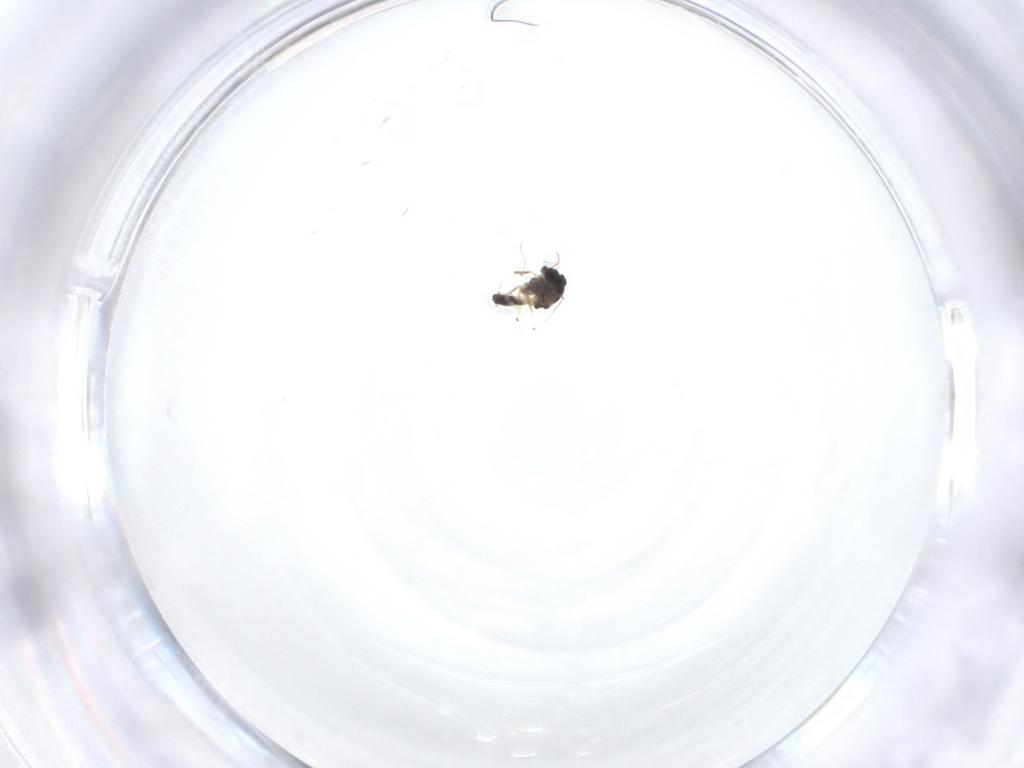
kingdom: Animalia
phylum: Arthropoda
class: Insecta
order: Diptera
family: Chironomidae
